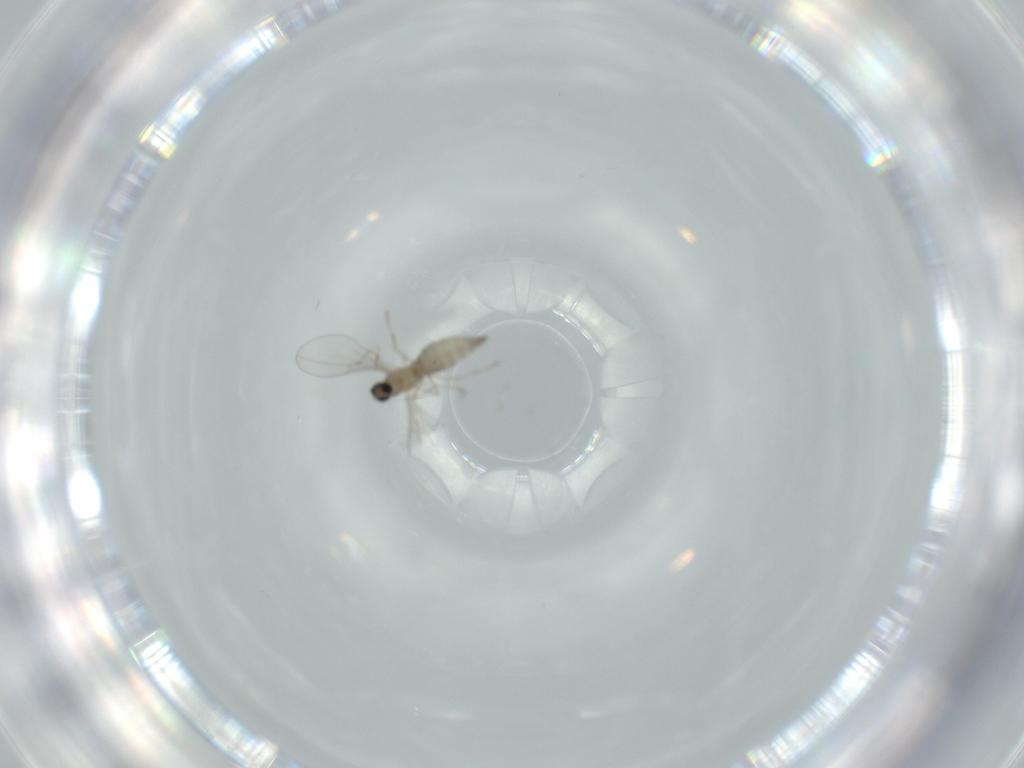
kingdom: Animalia
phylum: Arthropoda
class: Insecta
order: Diptera
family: Cecidomyiidae
